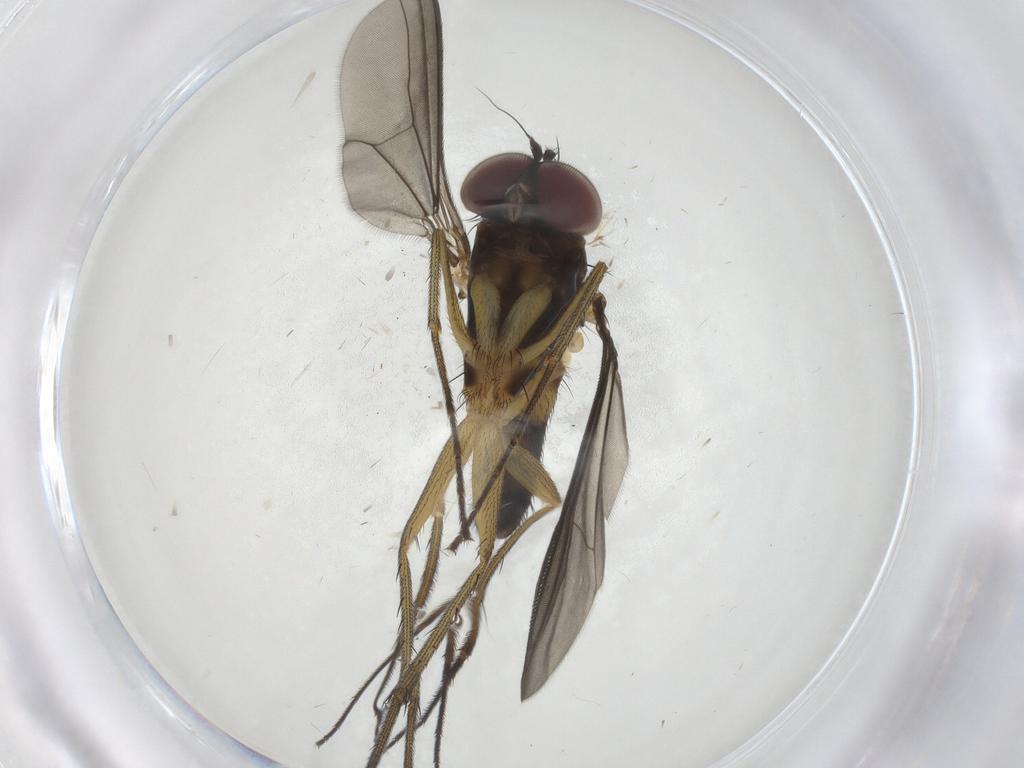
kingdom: Animalia
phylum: Arthropoda
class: Insecta
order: Diptera
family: Dolichopodidae
